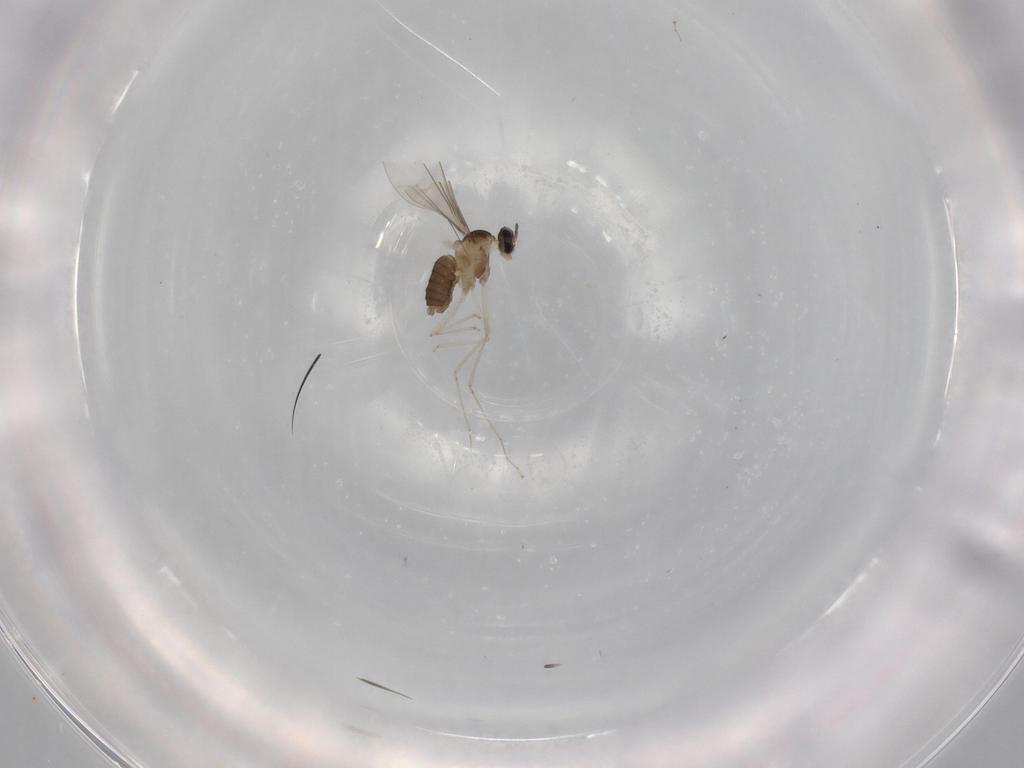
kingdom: Animalia
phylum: Arthropoda
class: Insecta
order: Diptera
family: Cecidomyiidae
